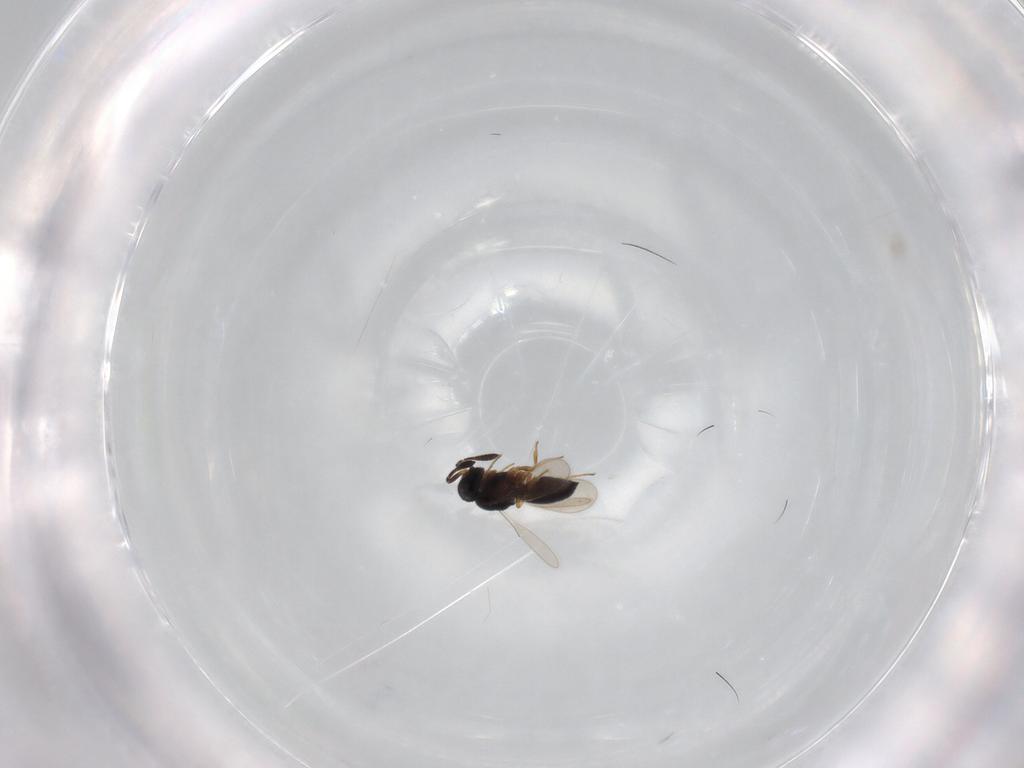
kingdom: Animalia
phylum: Arthropoda
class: Insecta
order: Hymenoptera
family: Scelionidae
